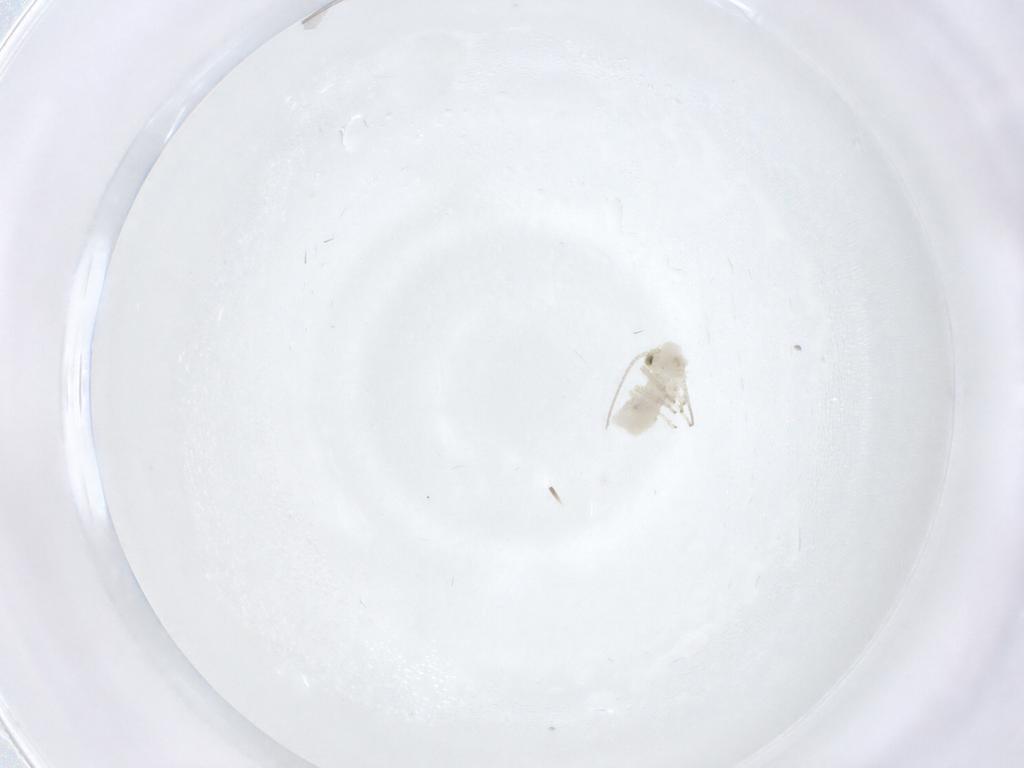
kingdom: Animalia
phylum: Arthropoda
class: Insecta
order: Psocodea
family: Caeciliusidae
